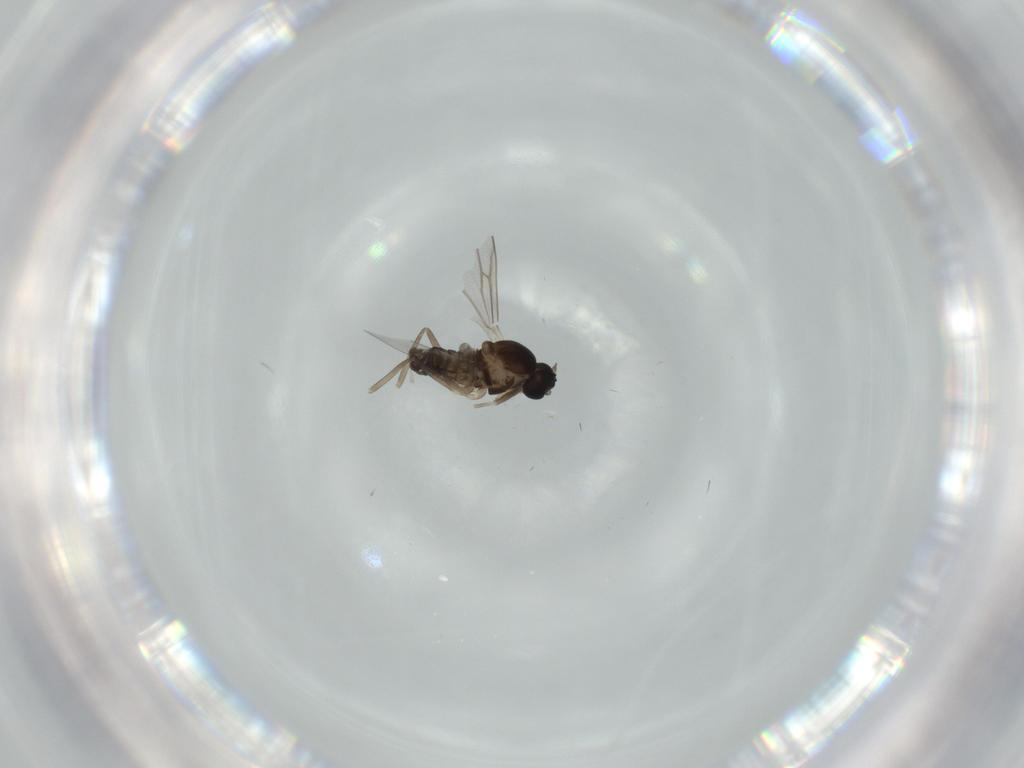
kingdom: Animalia
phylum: Arthropoda
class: Insecta
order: Diptera
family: Cecidomyiidae
